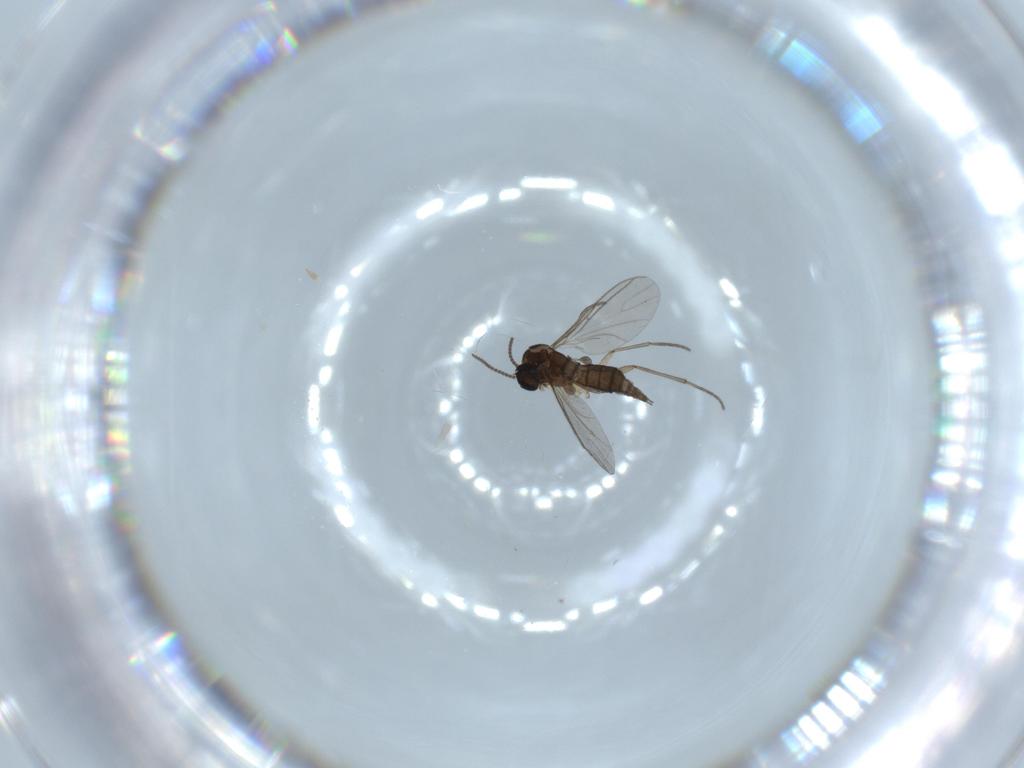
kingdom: Animalia
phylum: Arthropoda
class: Insecta
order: Diptera
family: Sciaridae
